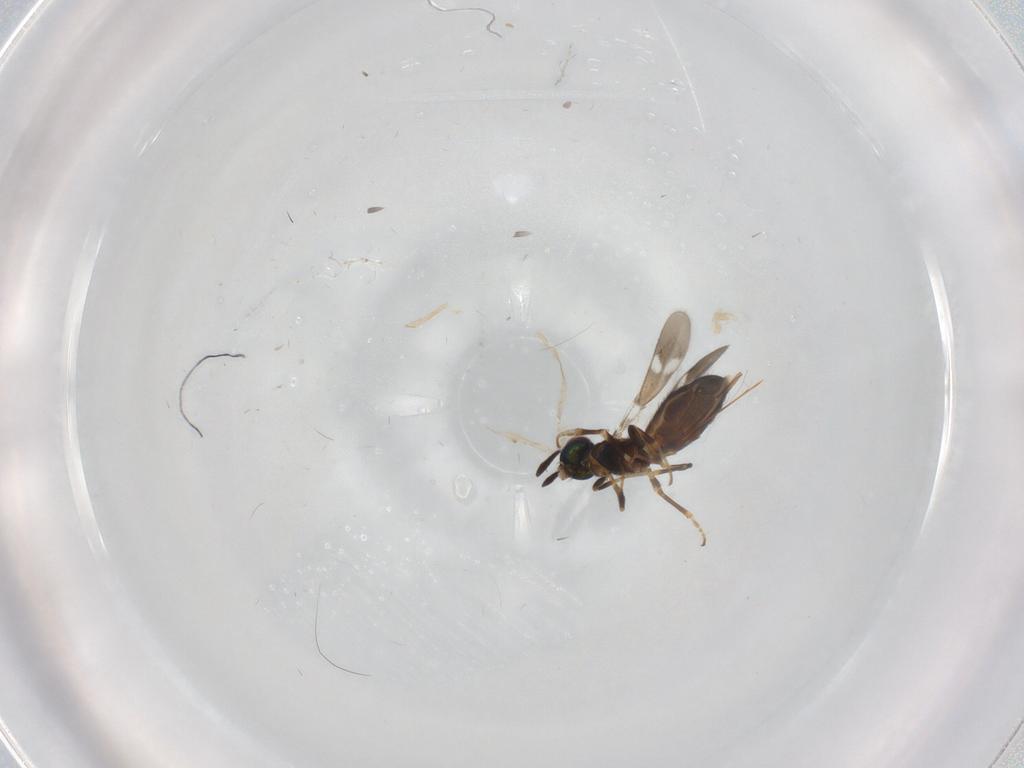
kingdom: Animalia
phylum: Arthropoda
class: Insecta
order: Hymenoptera
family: Eupelmidae
